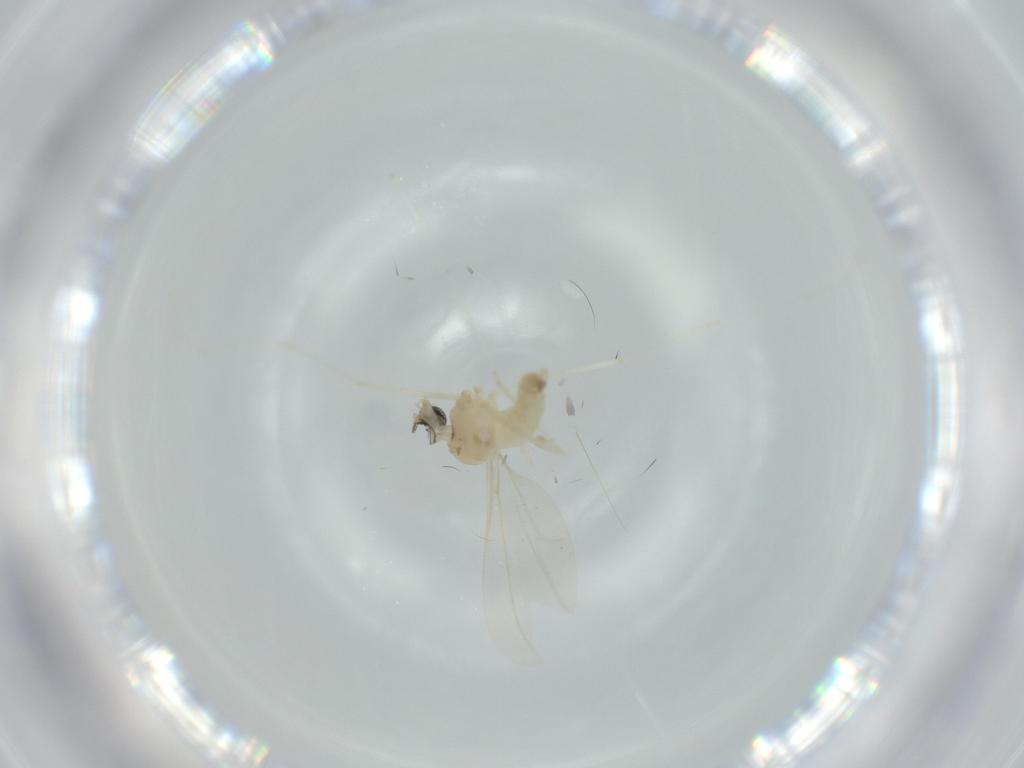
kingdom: Animalia
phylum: Arthropoda
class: Insecta
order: Diptera
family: Cecidomyiidae
